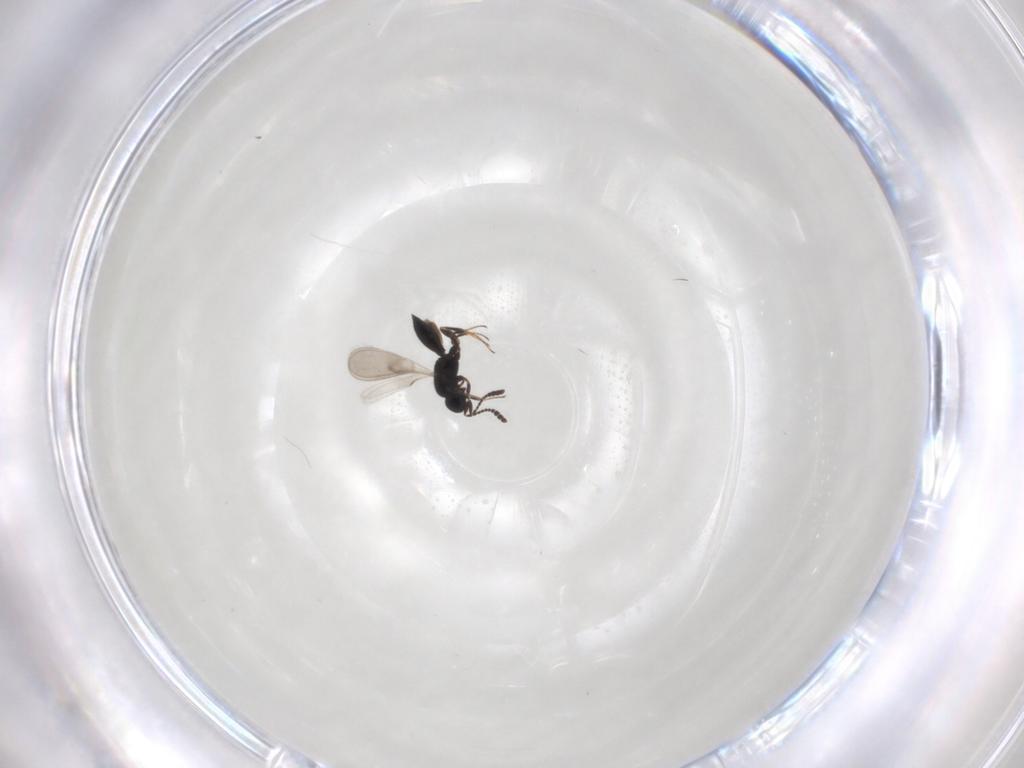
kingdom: Animalia
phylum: Arthropoda
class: Insecta
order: Hymenoptera
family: Scelionidae
